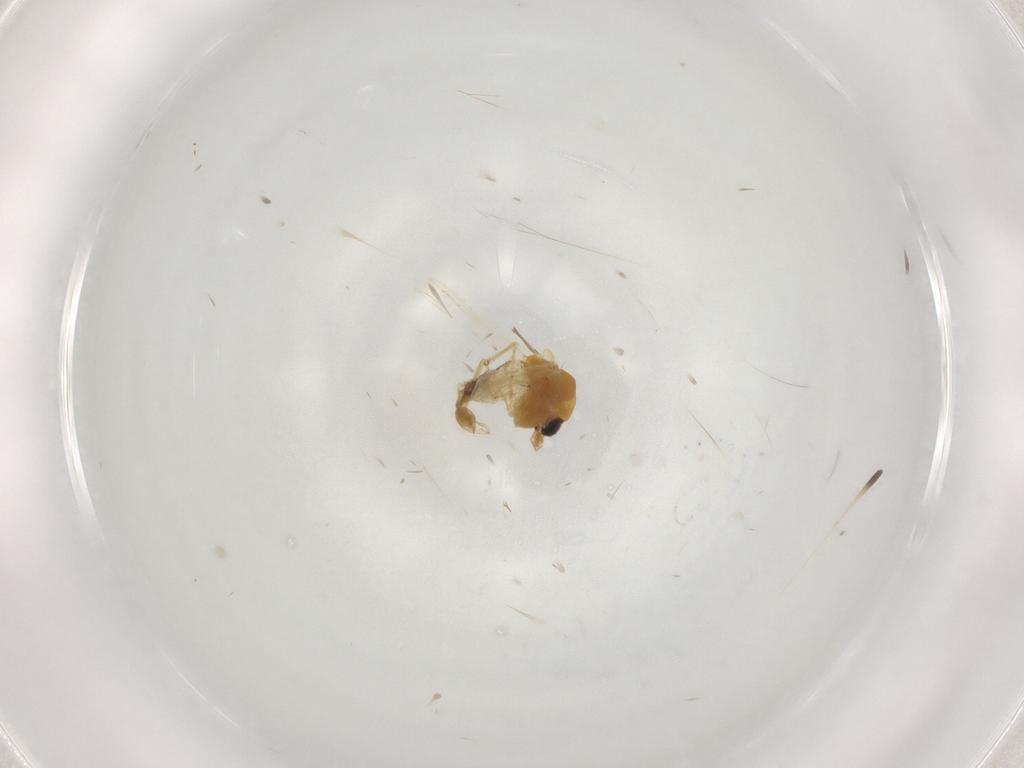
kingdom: Animalia
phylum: Arthropoda
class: Insecta
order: Diptera
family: Chironomidae
